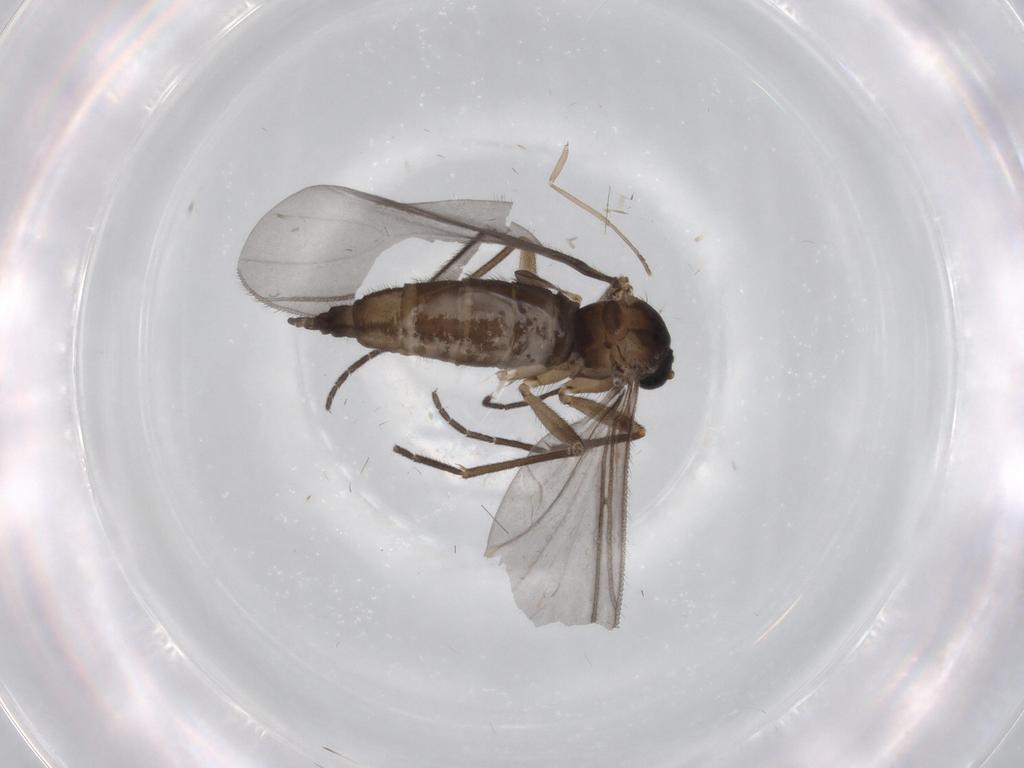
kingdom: Animalia
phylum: Arthropoda
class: Insecta
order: Diptera
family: Sciaridae
